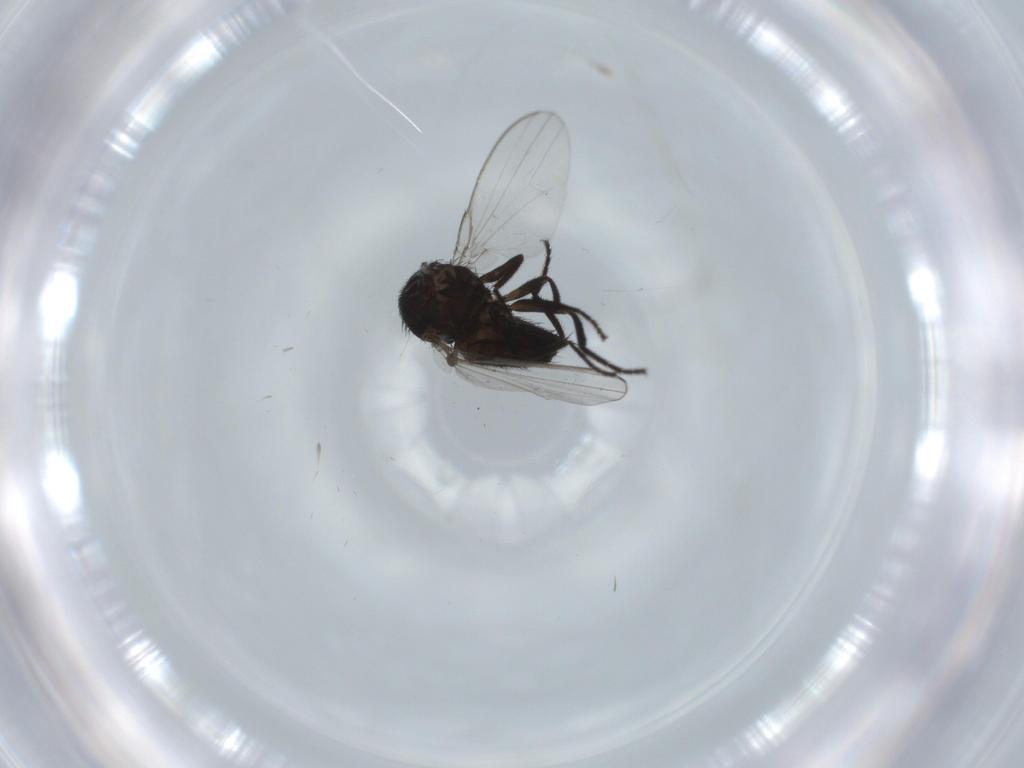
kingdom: Animalia
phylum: Arthropoda
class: Insecta
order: Diptera
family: Milichiidae
